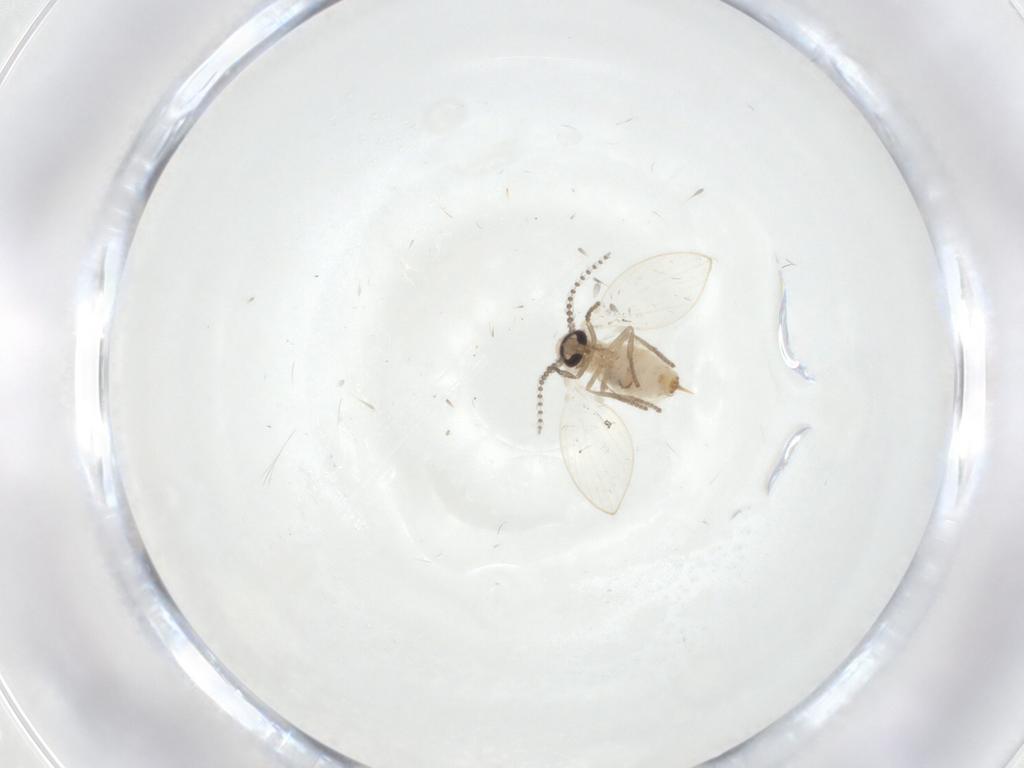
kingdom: Animalia
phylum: Arthropoda
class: Insecta
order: Diptera
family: Psychodidae
